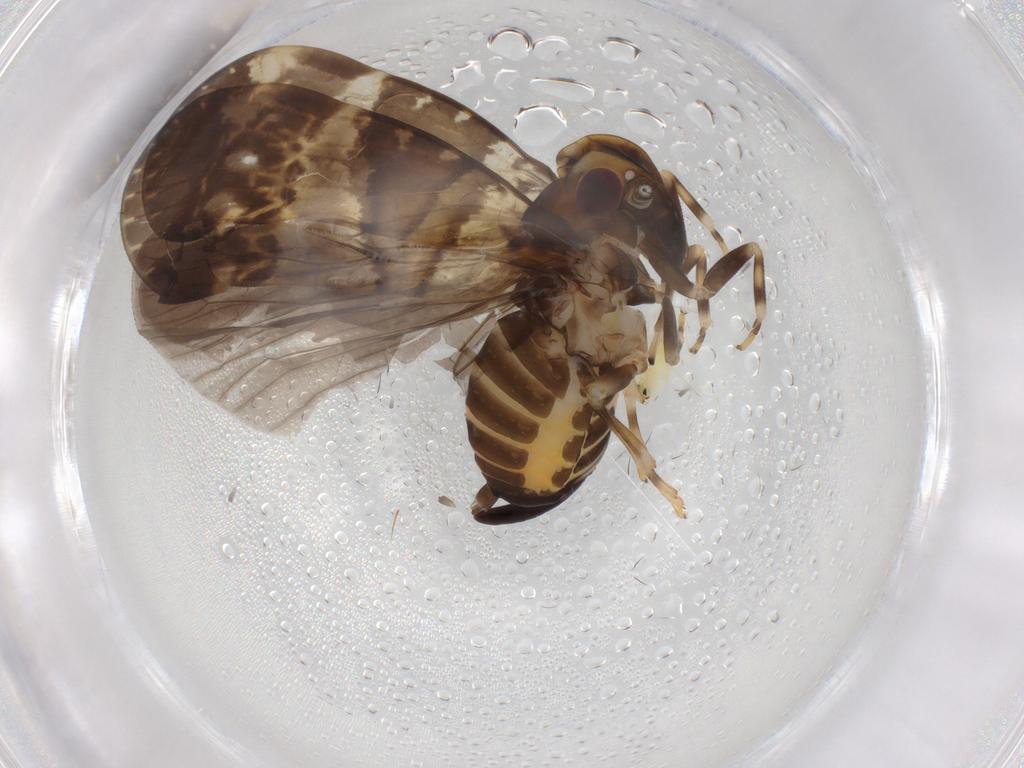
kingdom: Animalia
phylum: Arthropoda
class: Insecta
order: Hemiptera
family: Aleyrodidae
